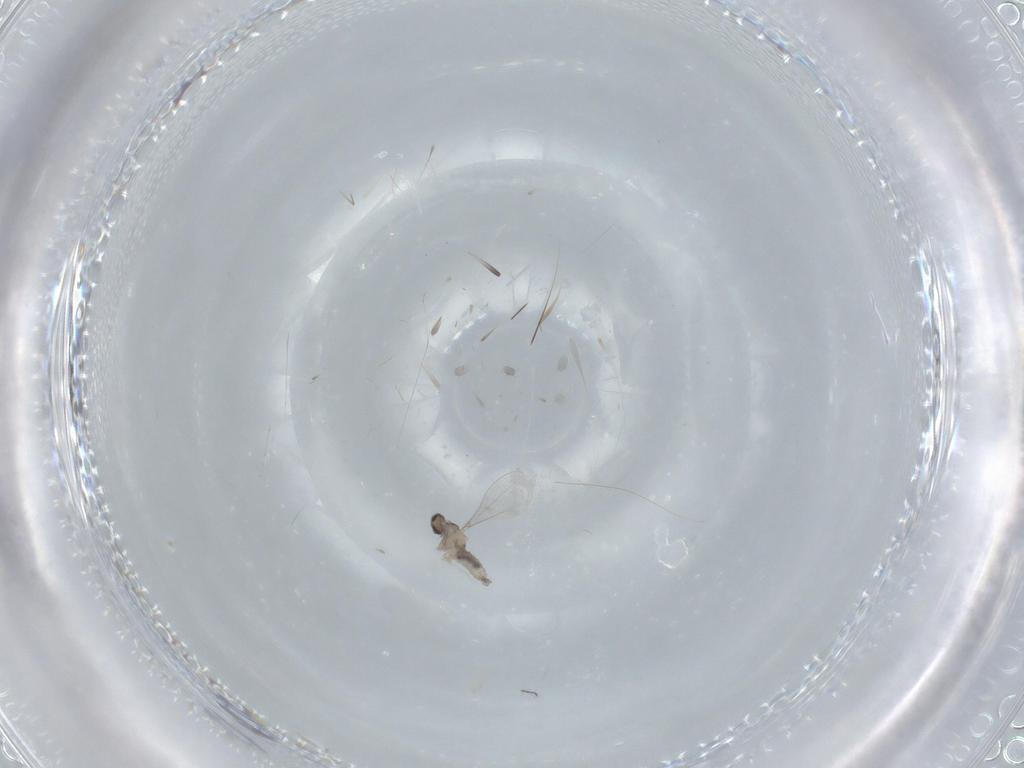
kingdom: Animalia
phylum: Arthropoda
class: Insecta
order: Diptera
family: Cecidomyiidae
